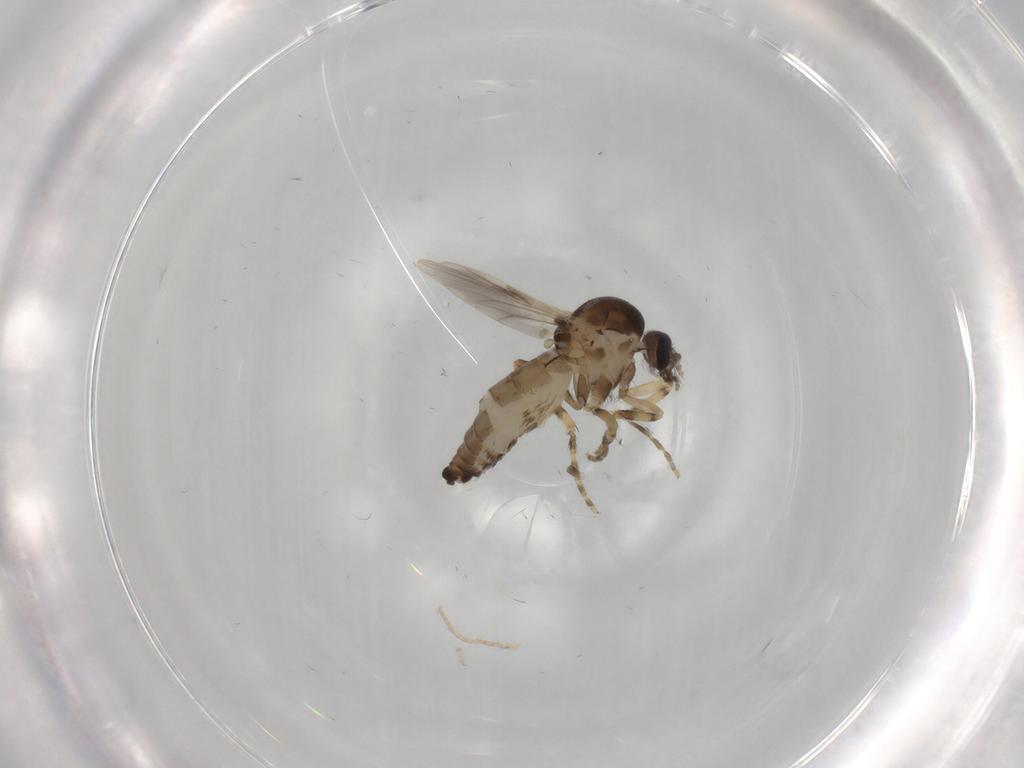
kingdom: Animalia
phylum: Arthropoda
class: Insecta
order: Diptera
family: Ceratopogonidae
